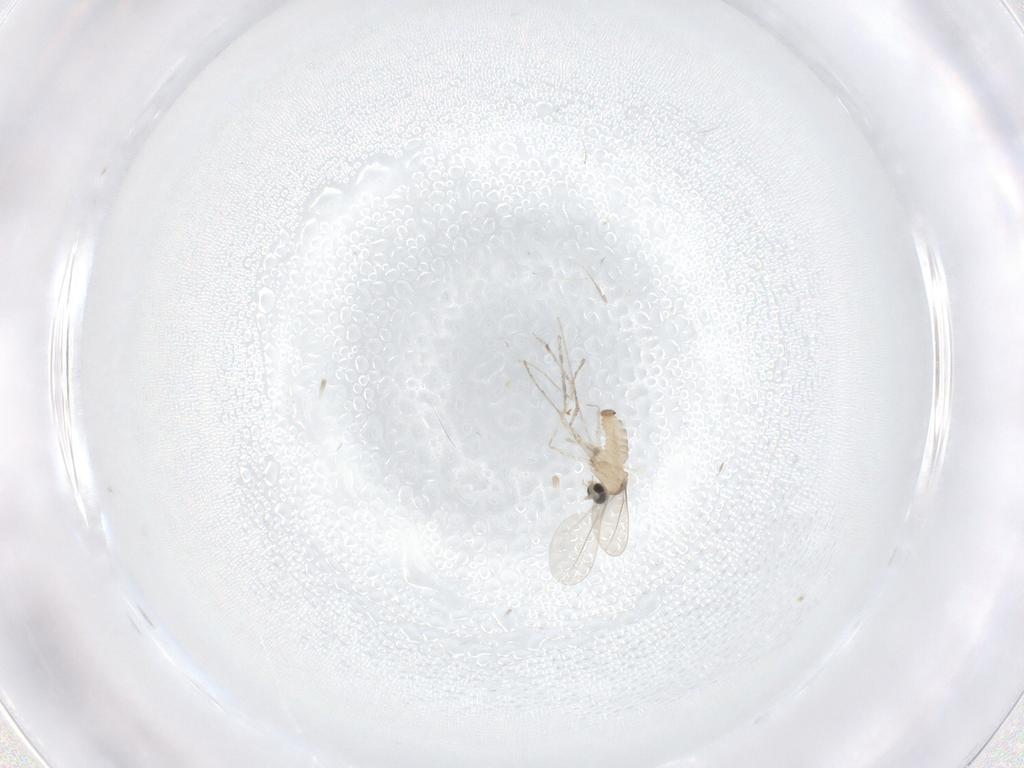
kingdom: Animalia
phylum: Arthropoda
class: Insecta
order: Diptera
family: Cecidomyiidae
